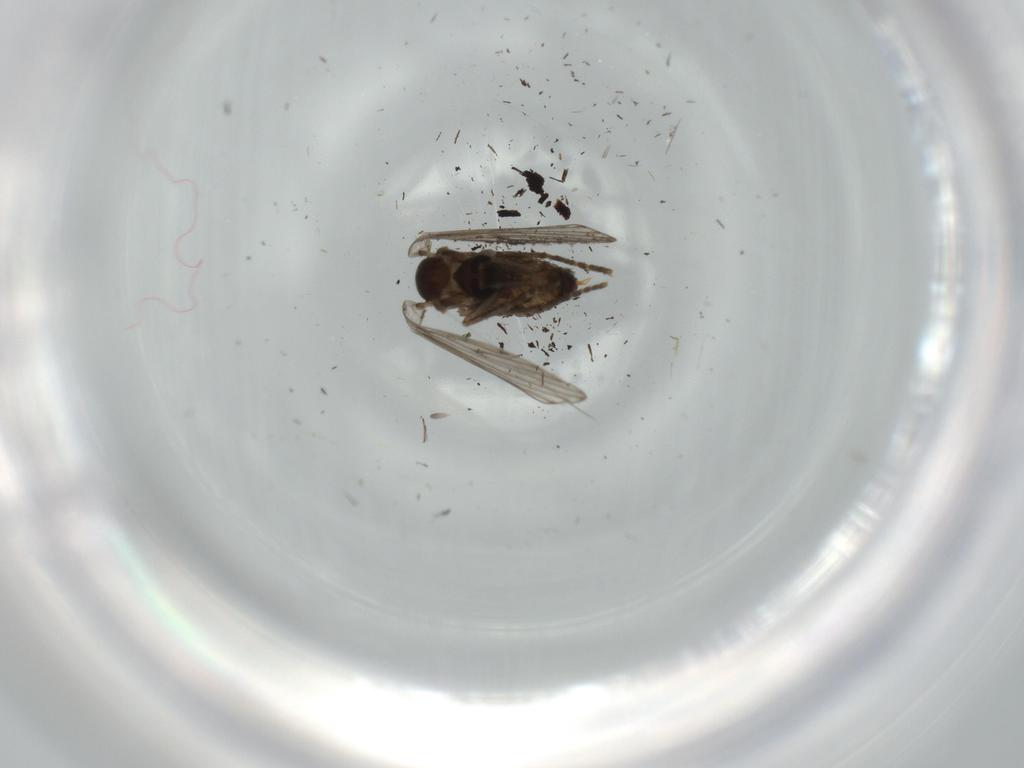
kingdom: Animalia
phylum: Arthropoda
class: Insecta
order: Diptera
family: Psychodidae
